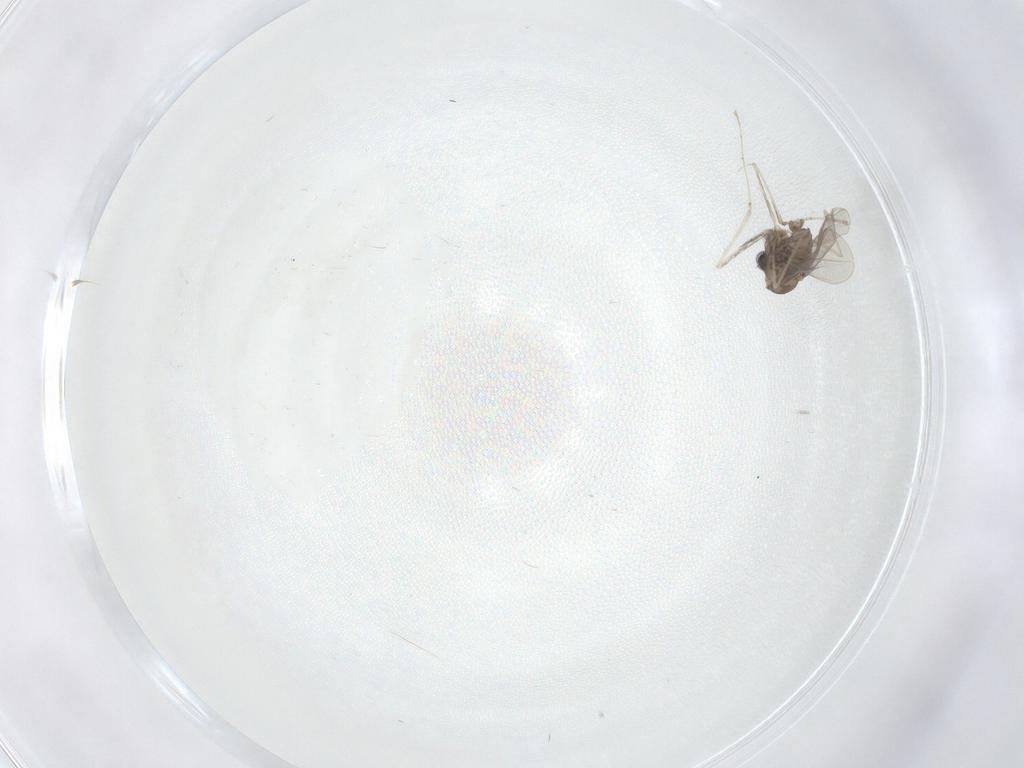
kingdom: Animalia
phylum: Arthropoda
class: Insecta
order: Diptera
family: Cecidomyiidae
